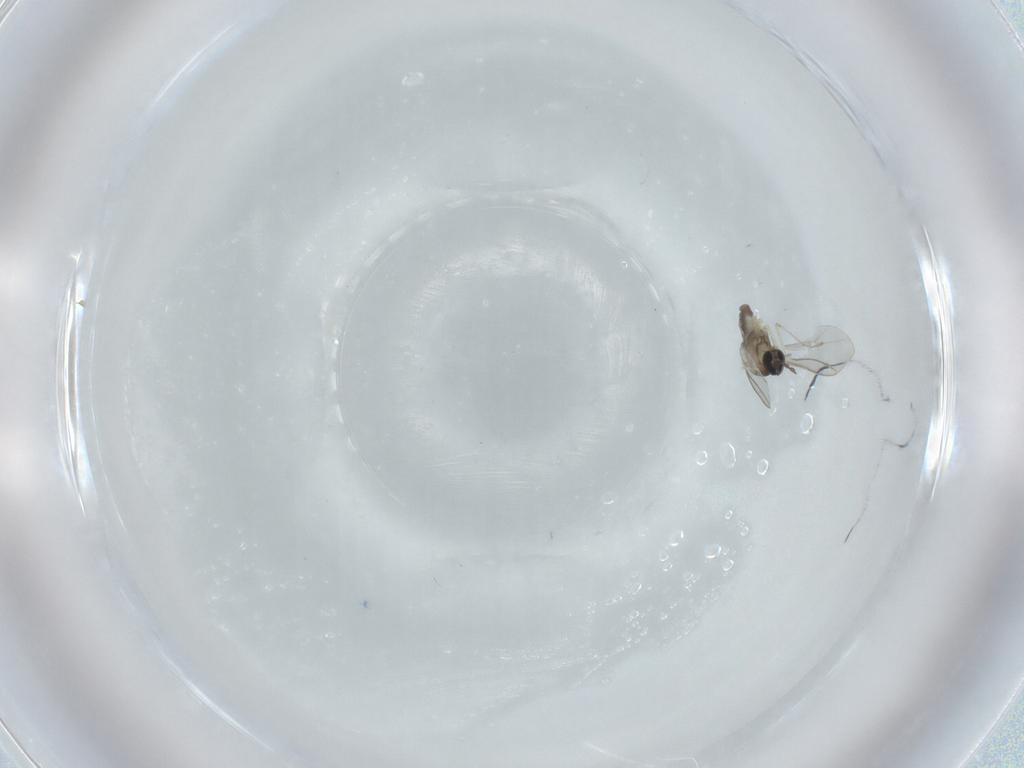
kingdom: Animalia
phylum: Arthropoda
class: Insecta
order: Diptera
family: Cecidomyiidae
